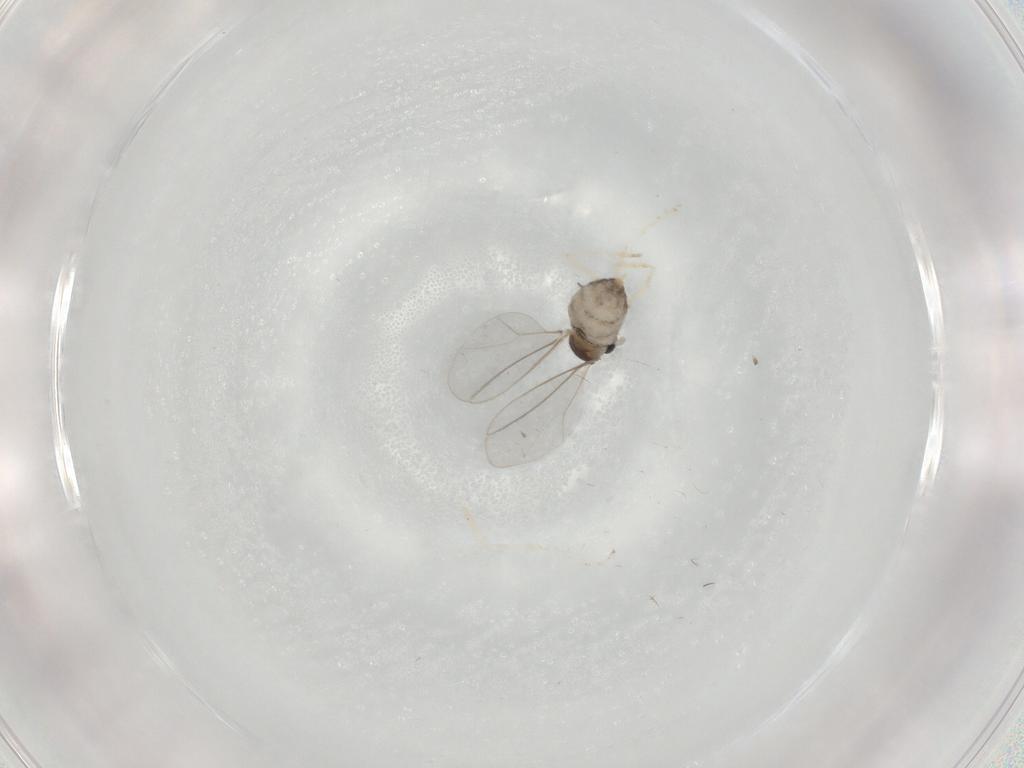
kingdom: Animalia
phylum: Arthropoda
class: Insecta
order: Diptera
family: Cecidomyiidae
